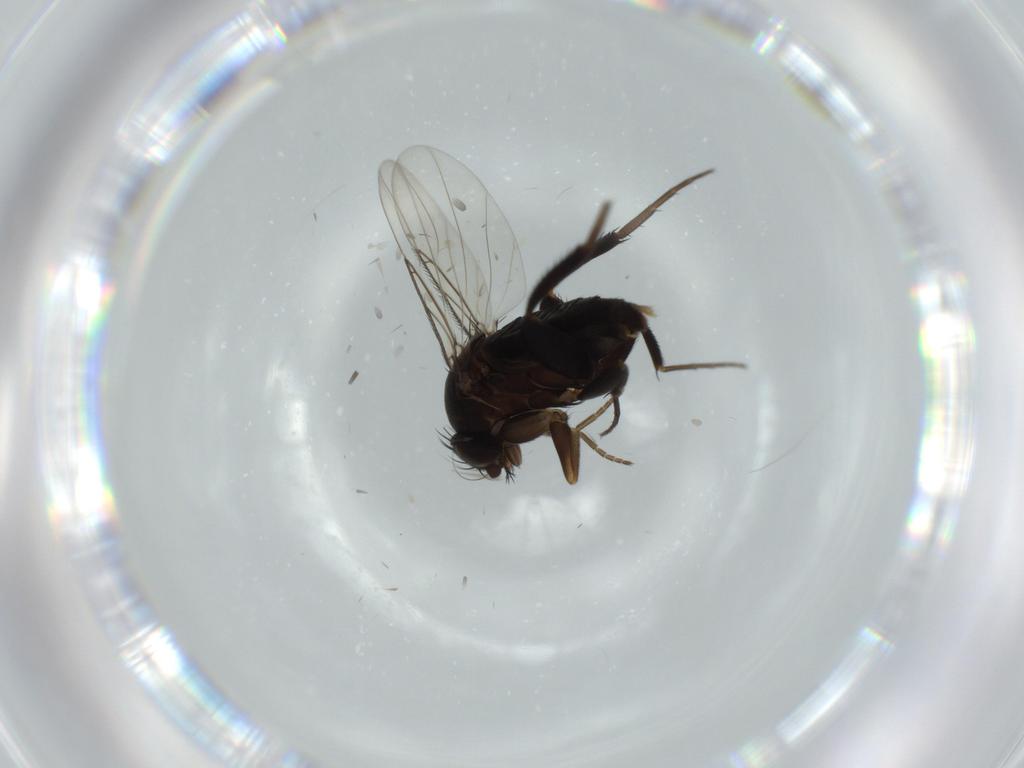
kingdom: Animalia
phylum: Arthropoda
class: Insecta
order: Diptera
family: Phoridae
